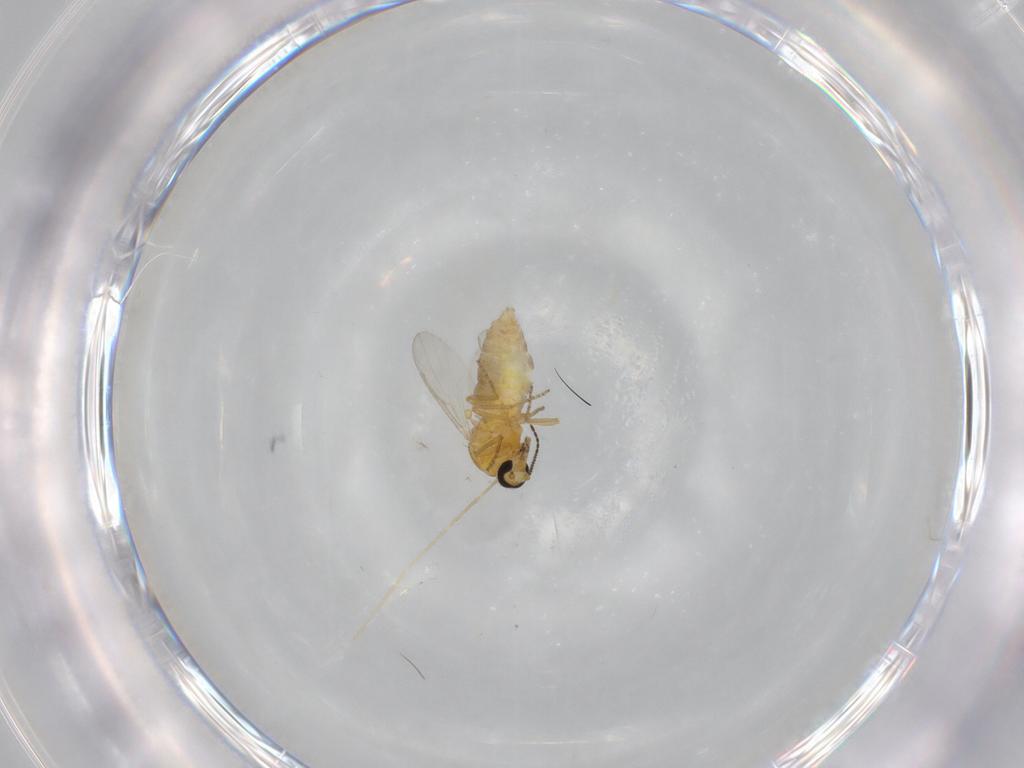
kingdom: Animalia
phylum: Arthropoda
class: Insecta
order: Diptera
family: Ceratopogonidae
